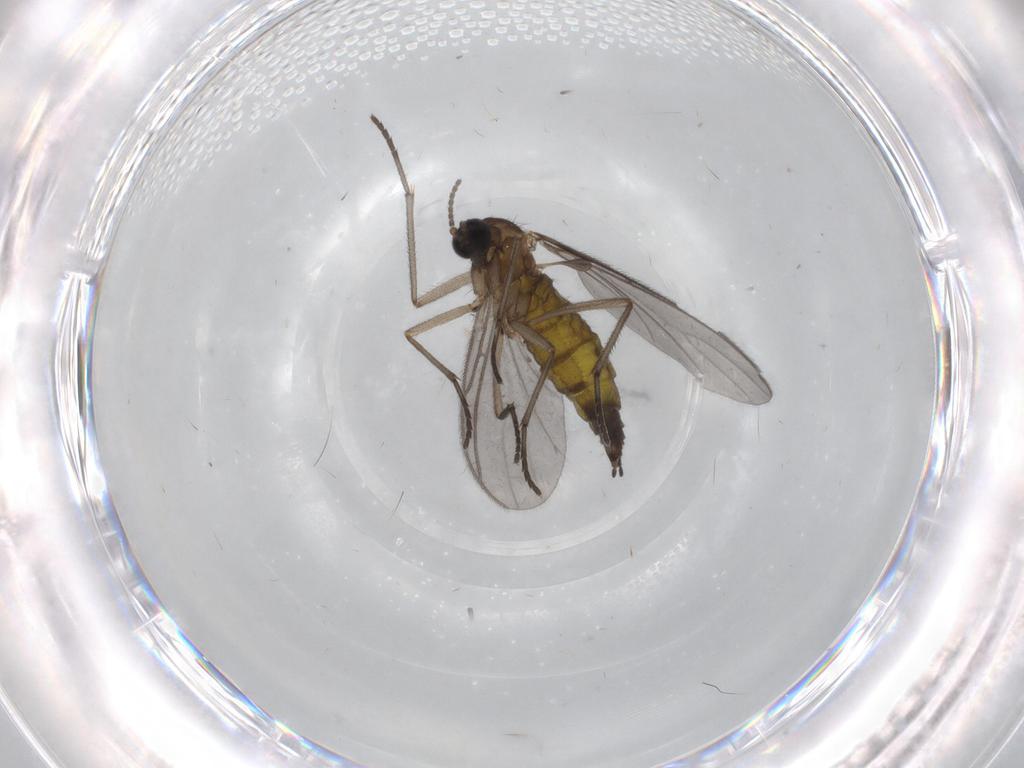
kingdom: Animalia
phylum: Arthropoda
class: Insecta
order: Diptera
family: Sciaridae
